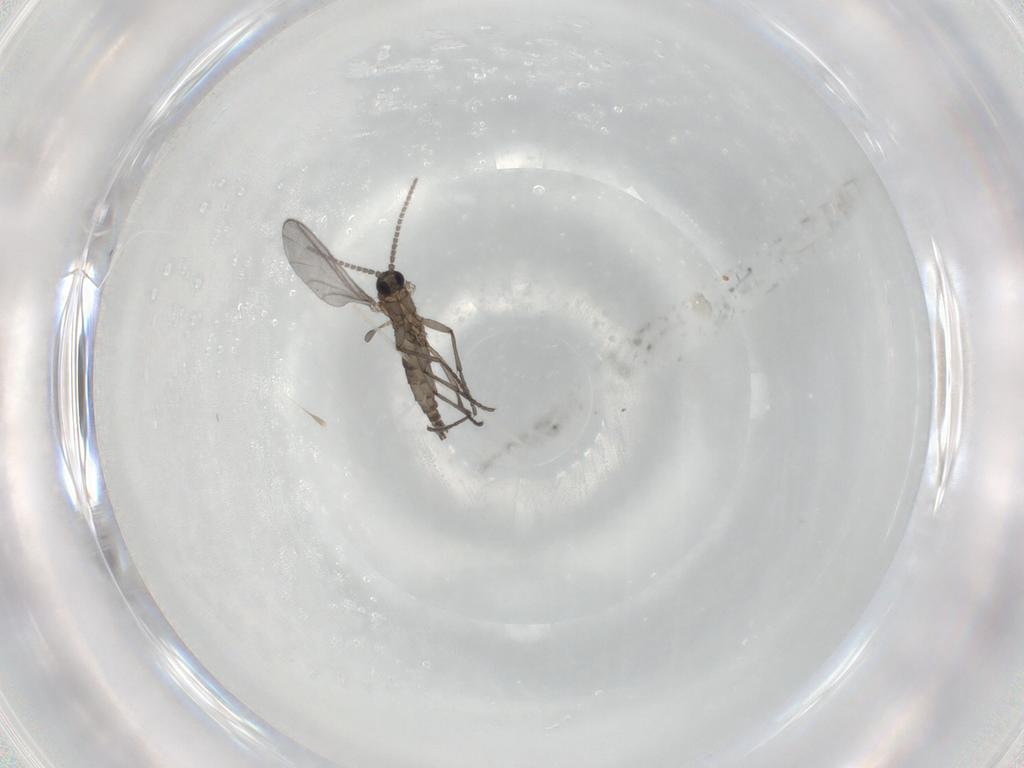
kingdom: Animalia
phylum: Arthropoda
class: Insecta
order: Diptera
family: Sciaridae
